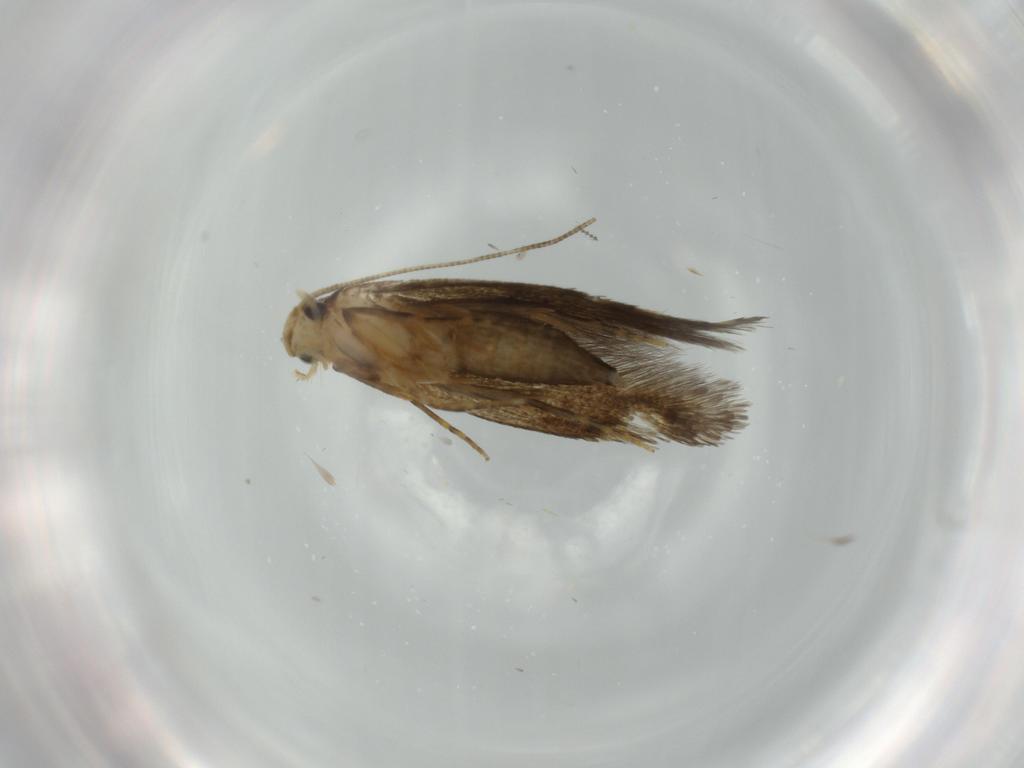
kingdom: Animalia
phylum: Arthropoda
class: Insecta
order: Lepidoptera
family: Tineidae
